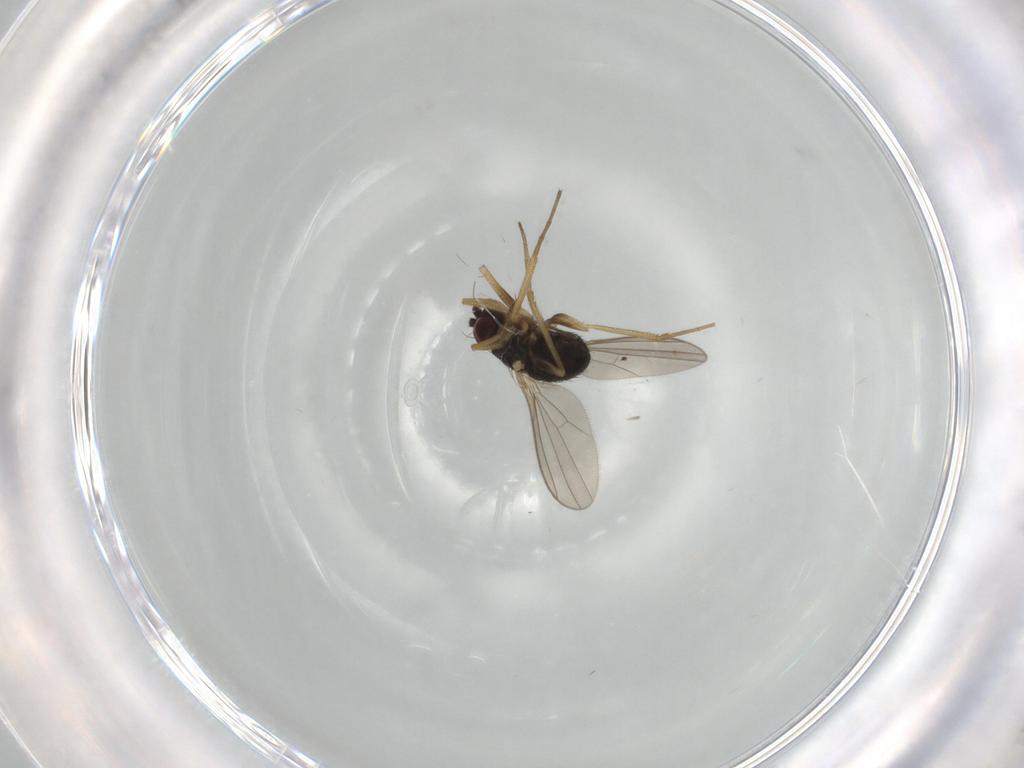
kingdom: Animalia
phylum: Arthropoda
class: Insecta
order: Diptera
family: Dolichopodidae
